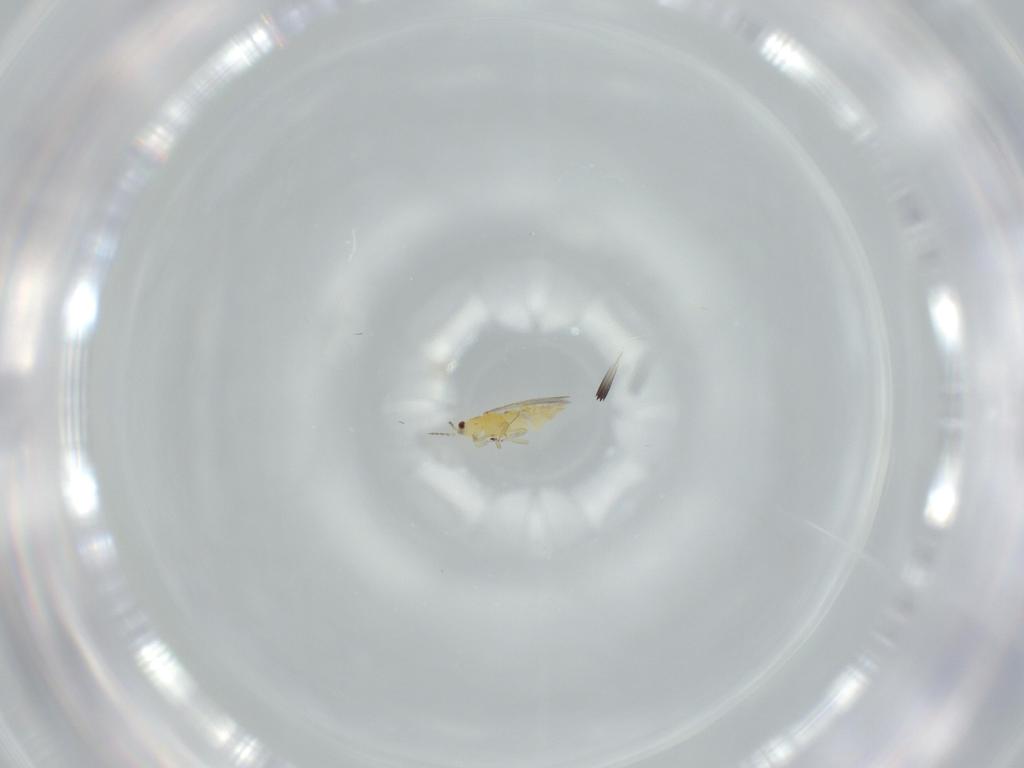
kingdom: Animalia
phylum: Arthropoda
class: Insecta
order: Thysanoptera
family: Thripidae
